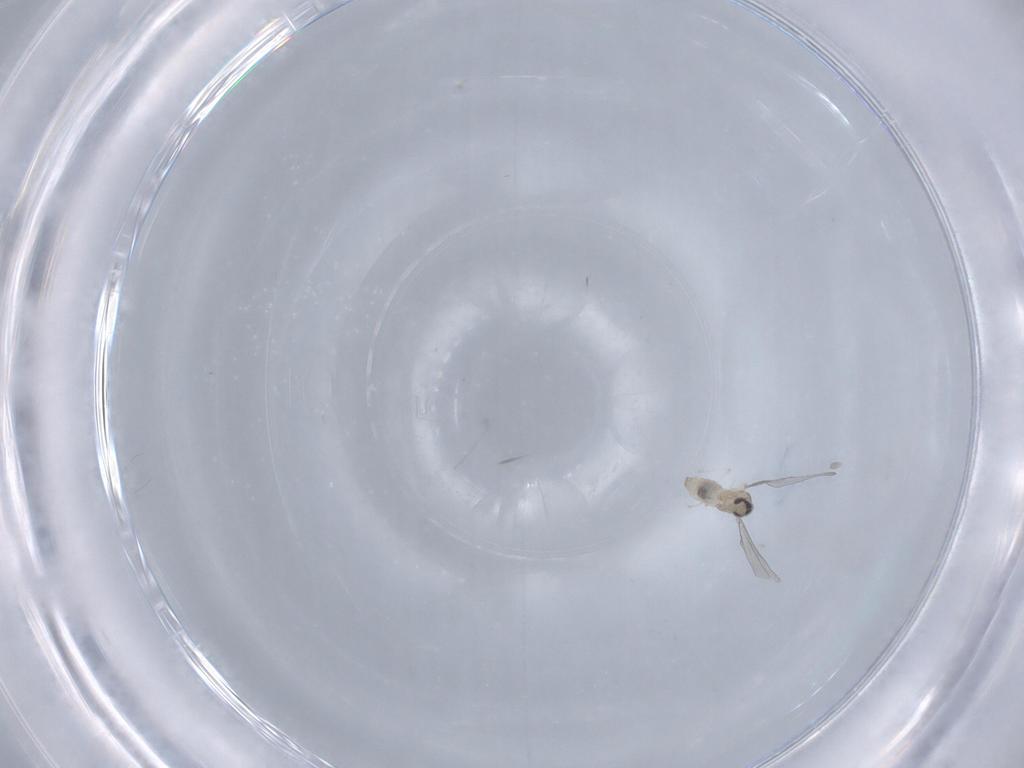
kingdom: Animalia
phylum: Arthropoda
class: Insecta
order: Diptera
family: Cecidomyiidae
